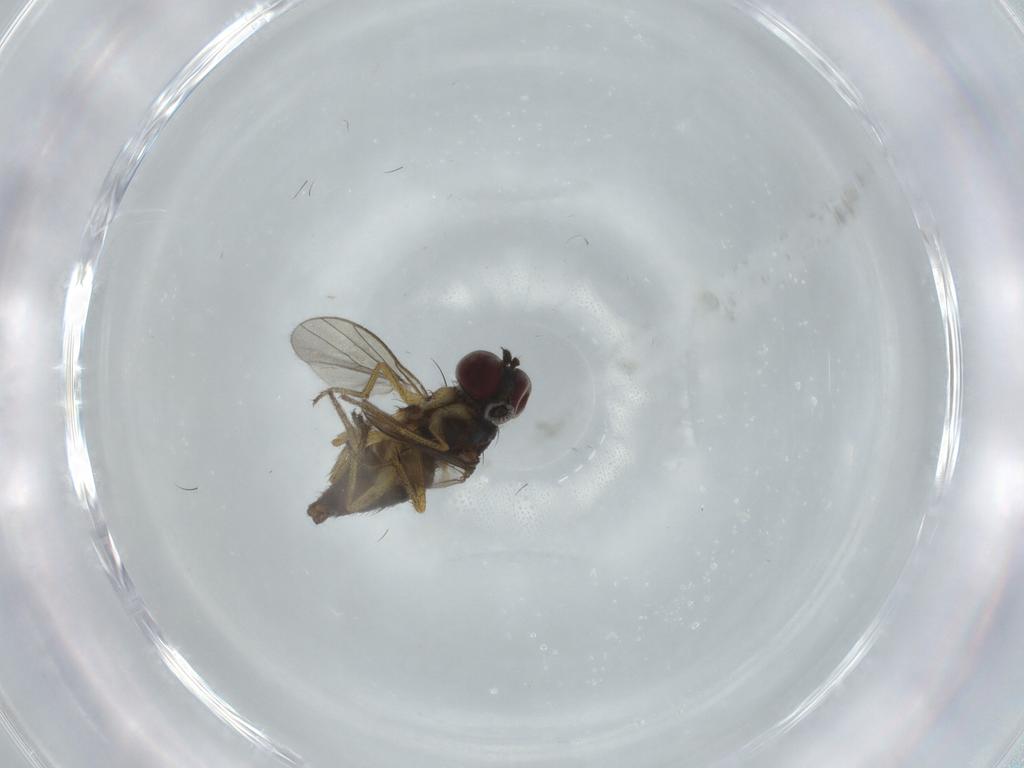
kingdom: Animalia
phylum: Arthropoda
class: Insecta
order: Diptera
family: Dolichopodidae
